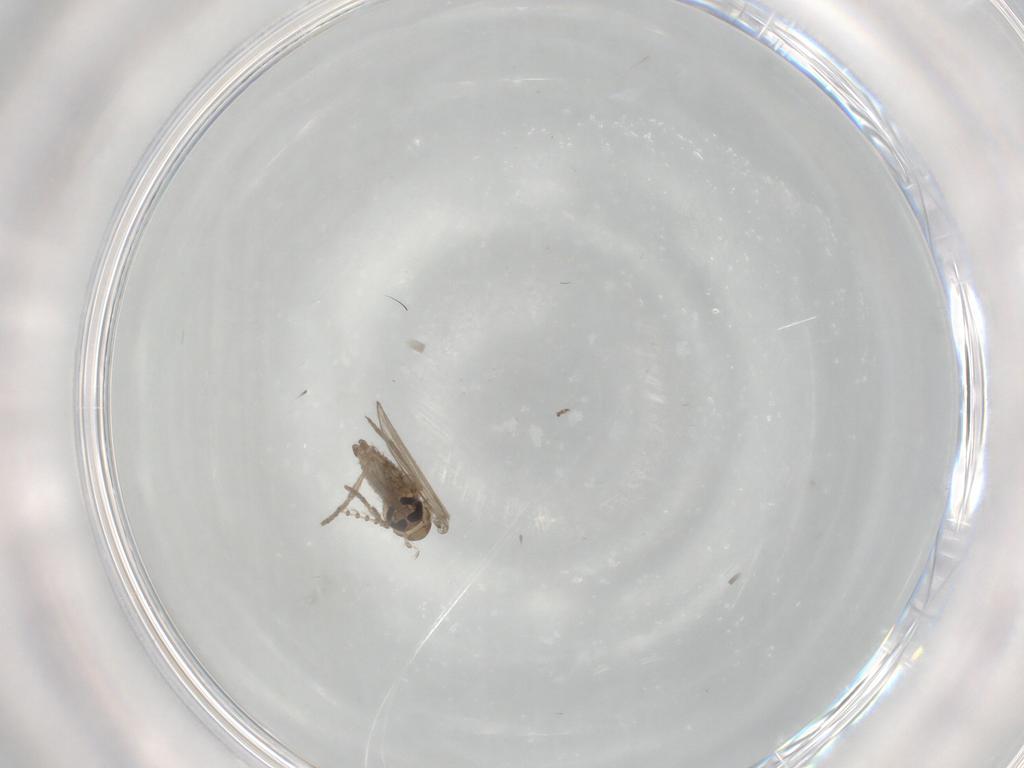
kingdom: Animalia
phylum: Arthropoda
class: Insecta
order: Diptera
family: Psychodidae
